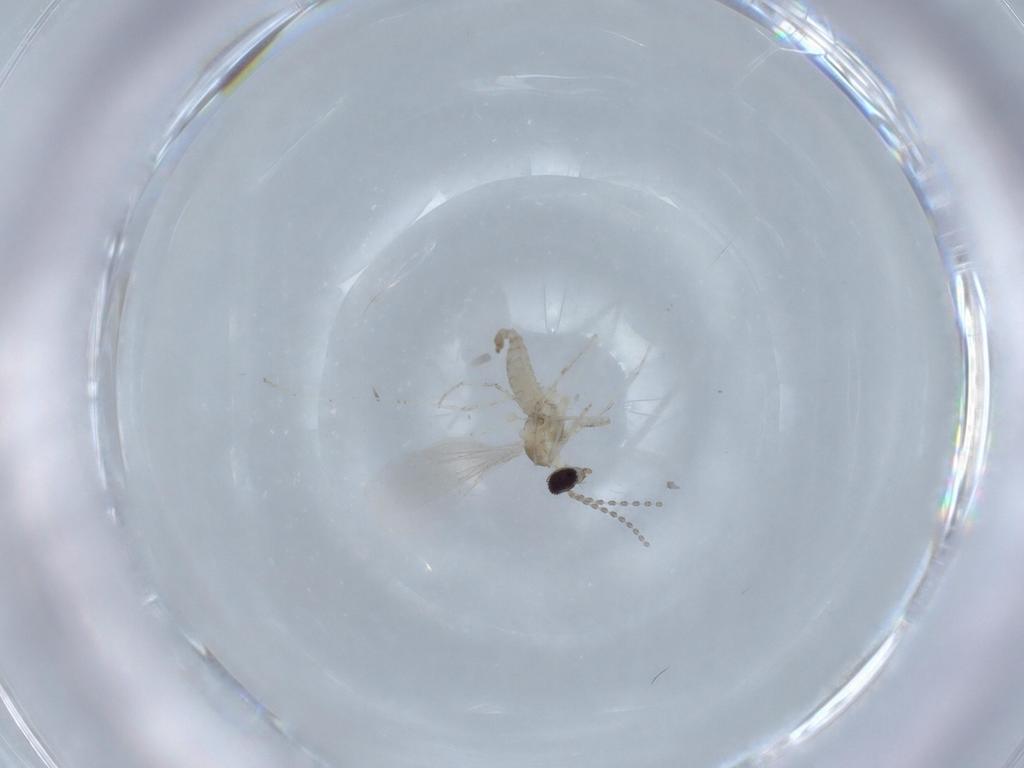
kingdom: Animalia
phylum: Arthropoda
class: Insecta
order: Diptera
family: Cecidomyiidae
